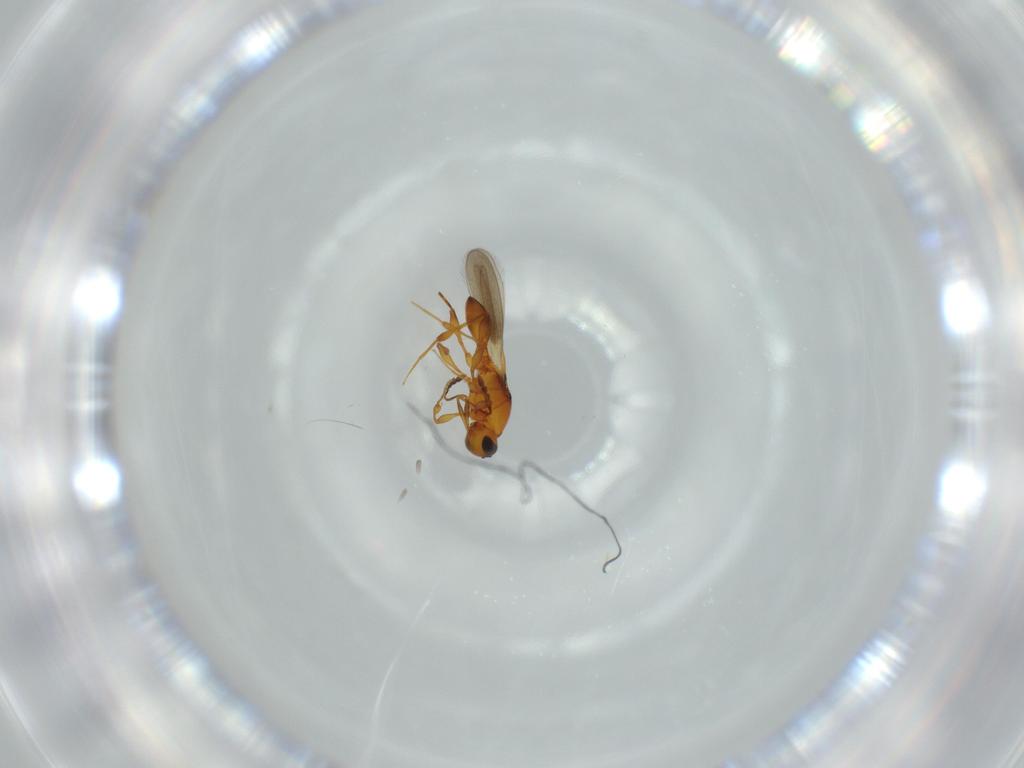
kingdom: Animalia
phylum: Arthropoda
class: Insecta
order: Hymenoptera
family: Platygastridae
